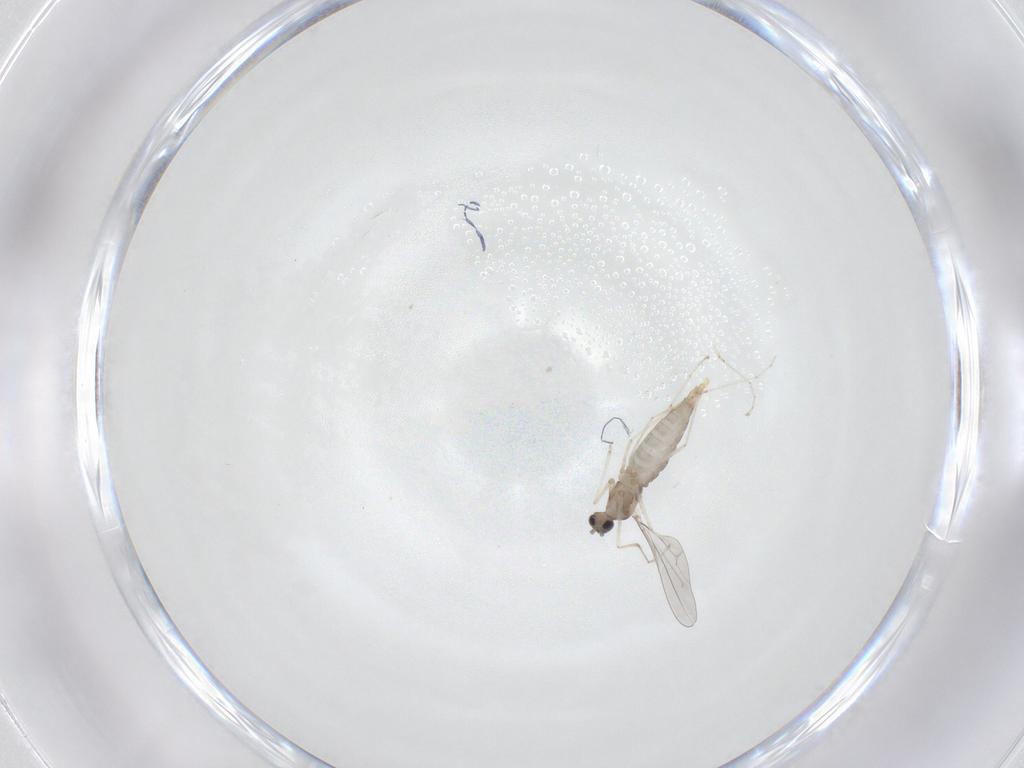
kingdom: Animalia
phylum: Arthropoda
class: Insecta
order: Diptera
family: Cecidomyiidae
